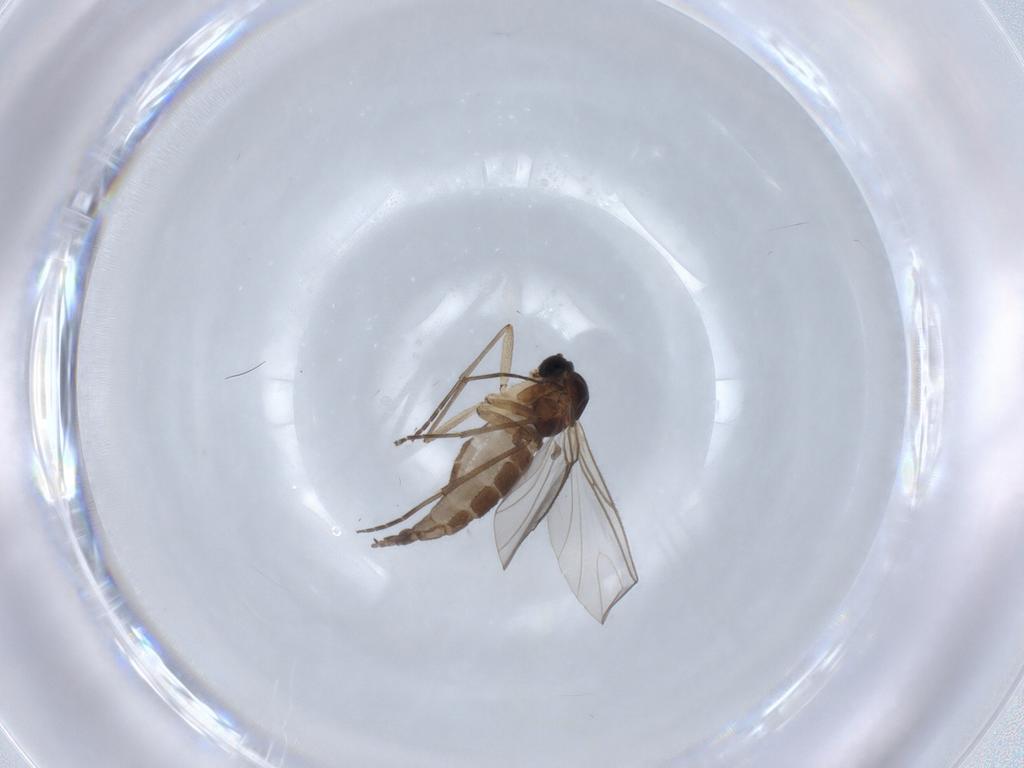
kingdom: Animalia
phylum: Arthropoda
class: Insecta
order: Diptera
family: Sciaridae
